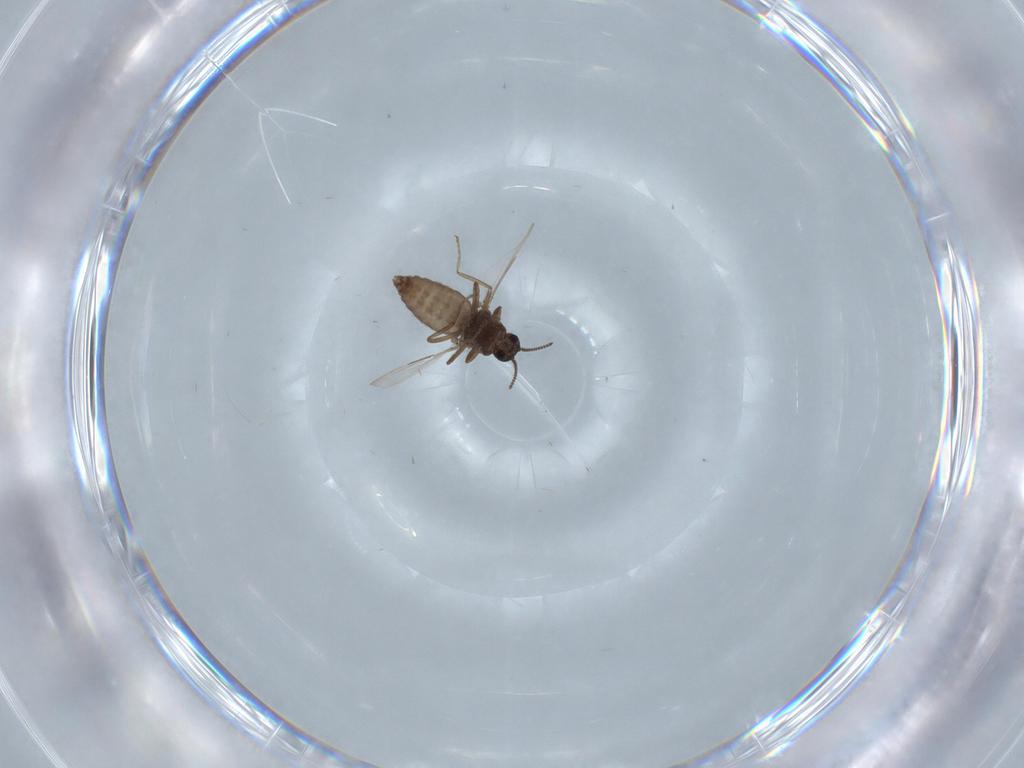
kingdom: Animalia
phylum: Arthropoda
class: Insecta
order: Diptera
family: Ceratopogonidae
